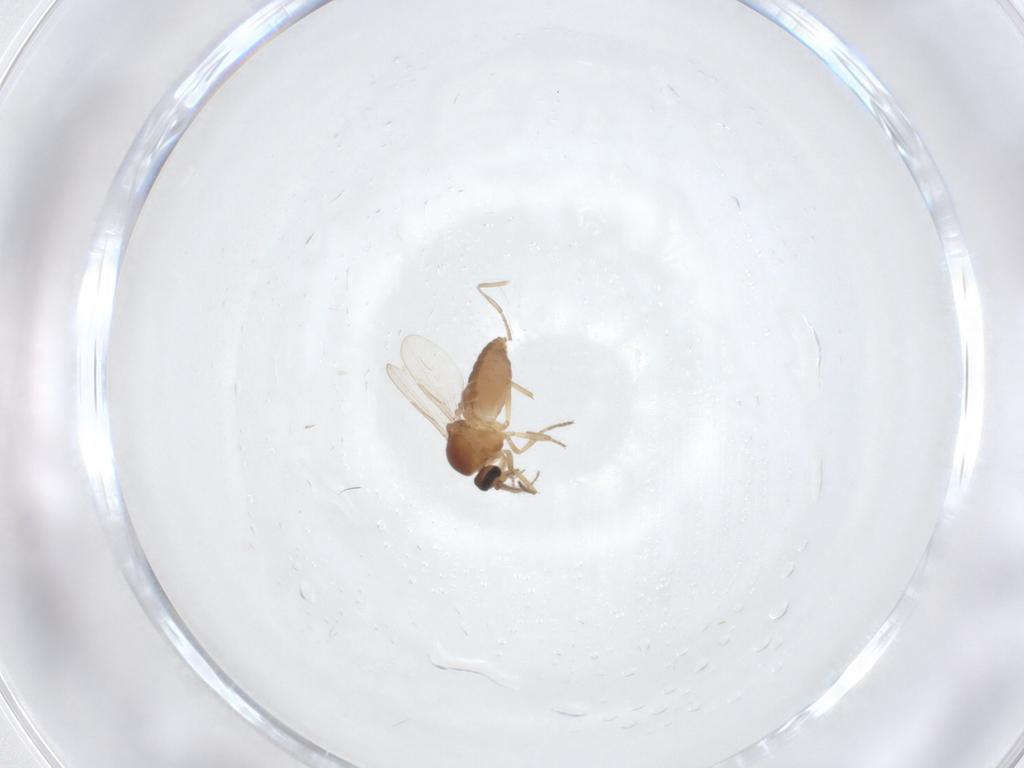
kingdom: Animalia
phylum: Arthropoda
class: Insecta
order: Diptera
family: Ceratopogonidae
